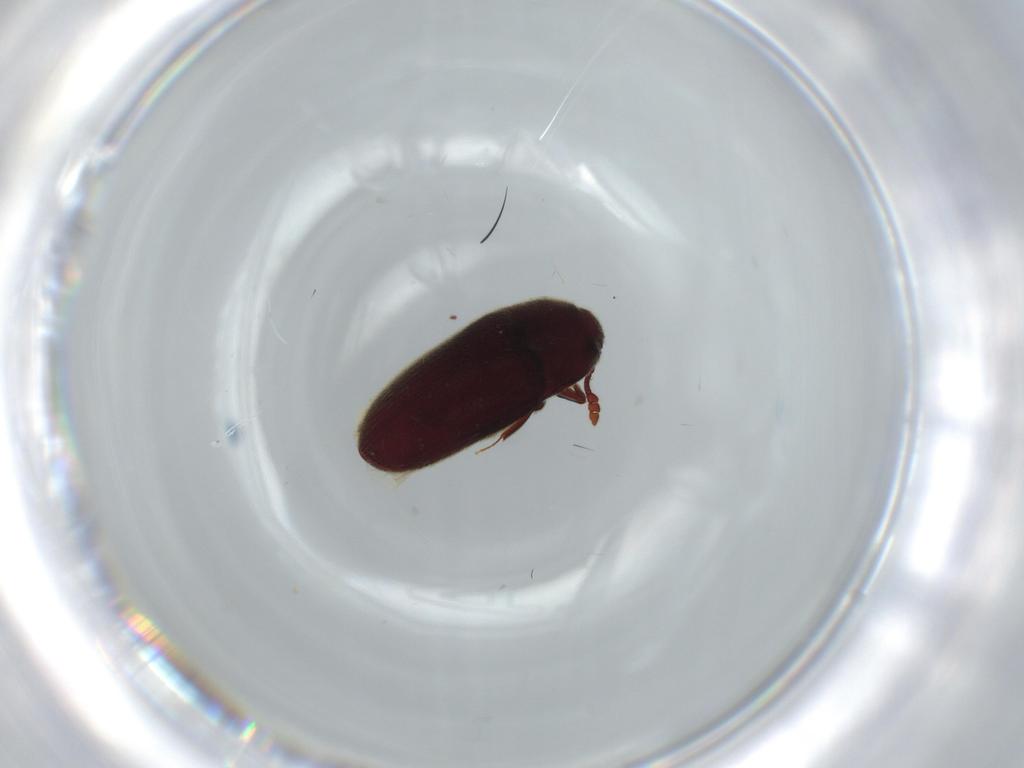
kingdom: Animalia
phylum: Arthropoda
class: Insecta
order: Coleoptera
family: Throscidae
